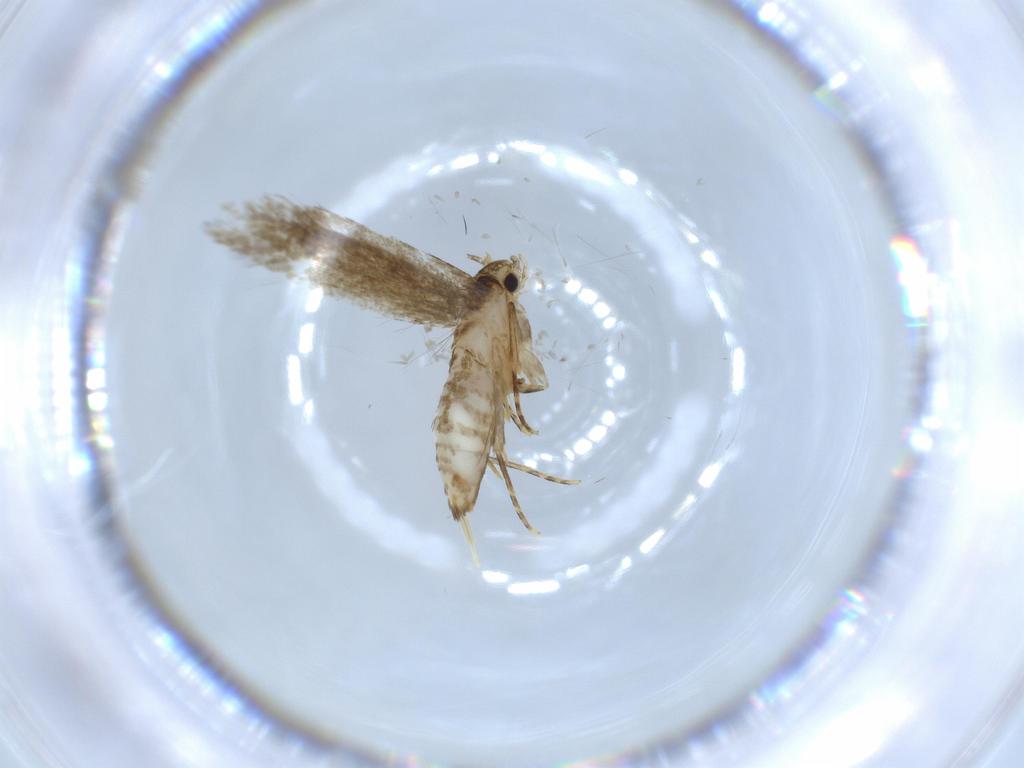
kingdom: Animalia
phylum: Arthropoda
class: Insecta
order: Lepidoptera
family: Tineidae
